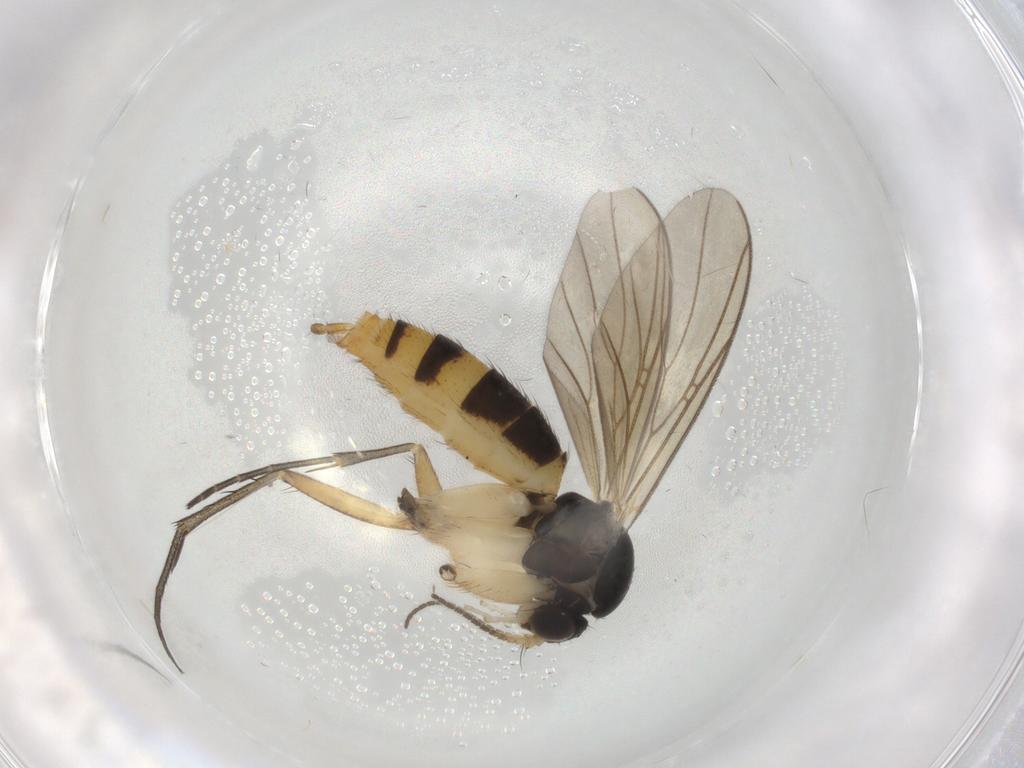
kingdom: Animalia
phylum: Arthropoda
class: Insecta
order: Diptera
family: Mycetophilidae
